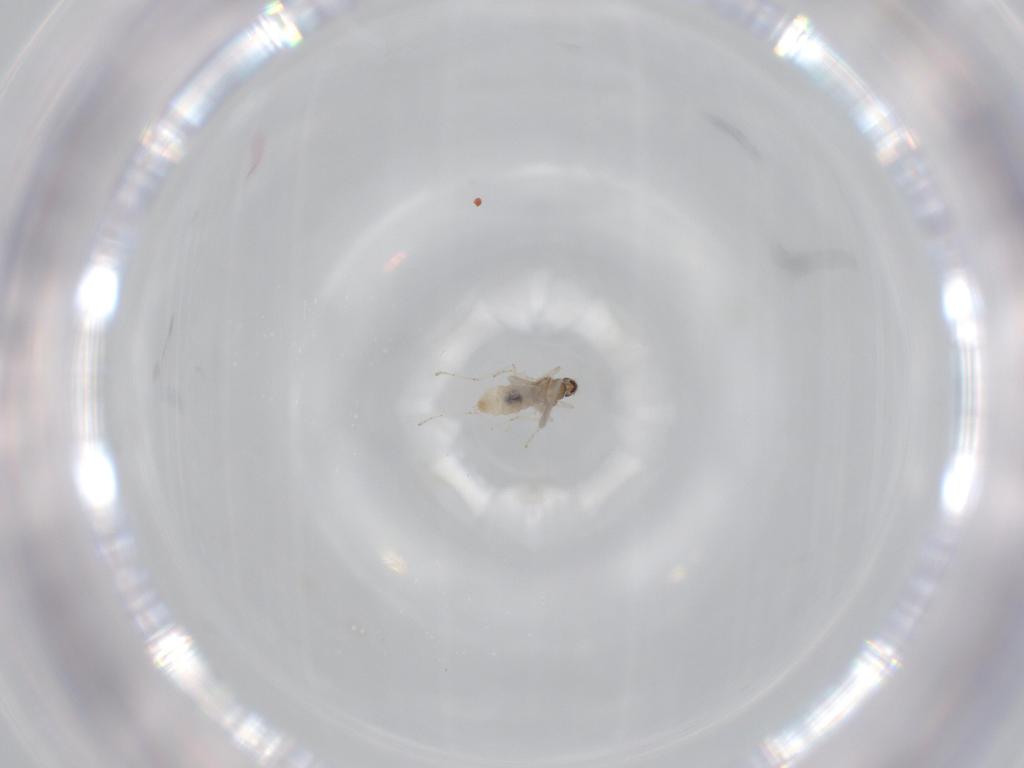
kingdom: Animalia
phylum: Arthropoda
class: Insecta
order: Diptera
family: Cecidomyiidae
